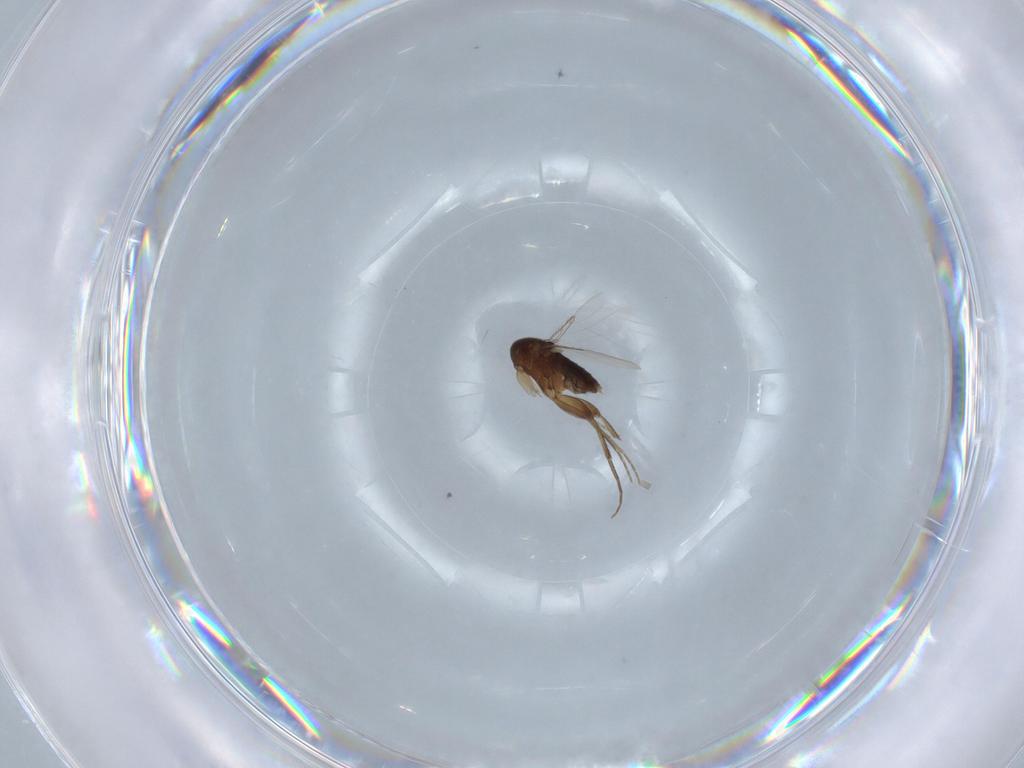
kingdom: Animalia
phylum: Arthropoda
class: Insecta
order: Diptera
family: Phoridae
